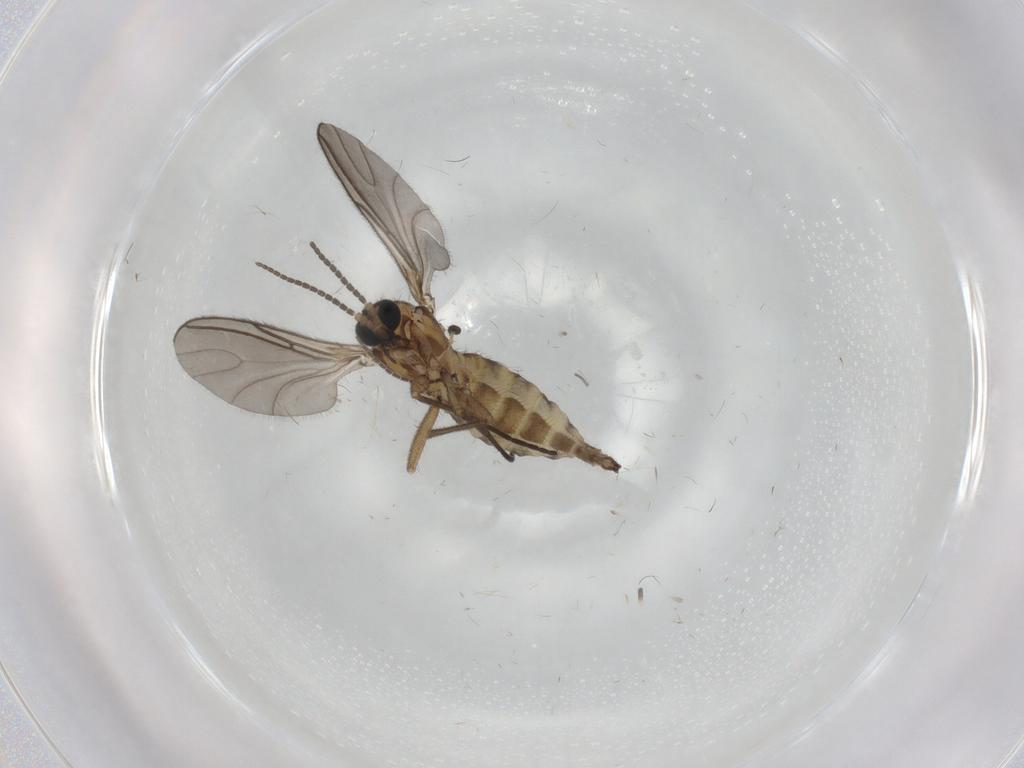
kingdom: Animalia
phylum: Arthropoda
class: Insecta
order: Diptera
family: Sciaridae
